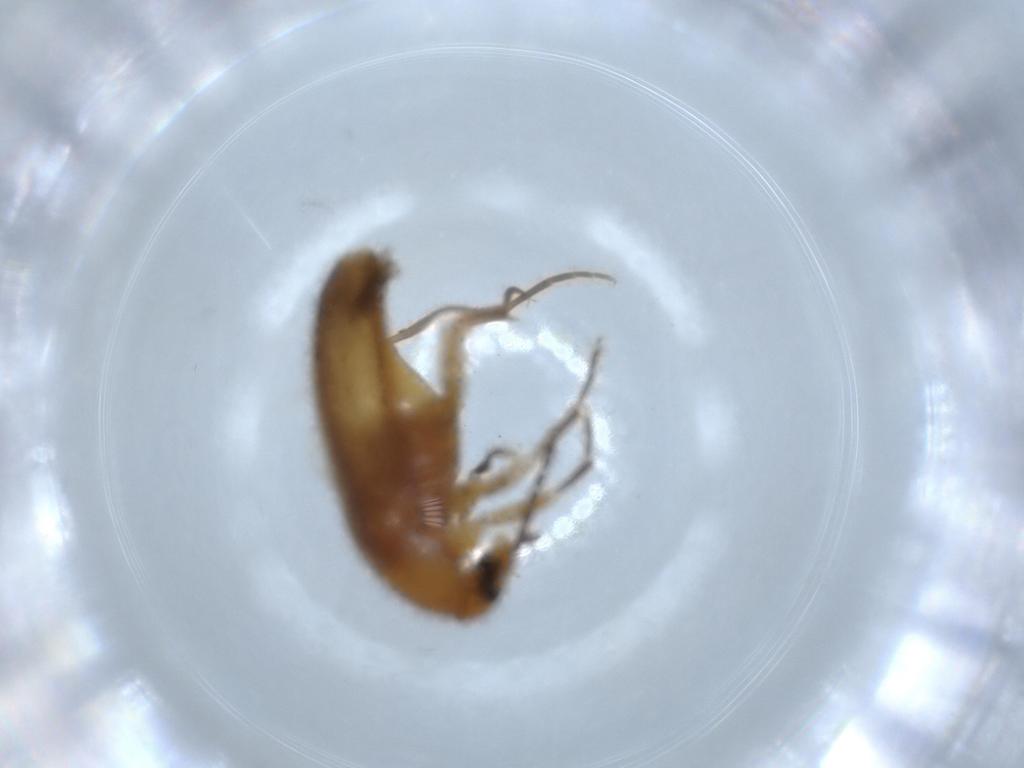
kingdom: Animalia
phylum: Arthropoda
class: Insecta
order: Coleoptera
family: Scraptiidae
